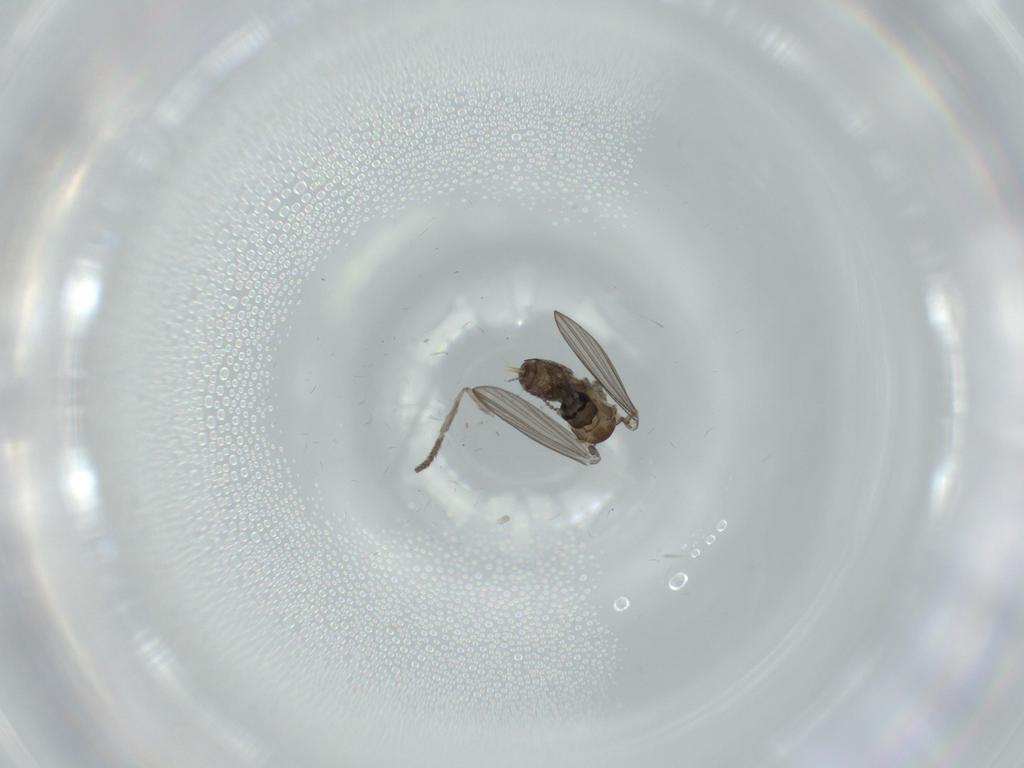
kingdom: Animalia
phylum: Arthropoda
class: Insecta
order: Diptera
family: Psychodidae
